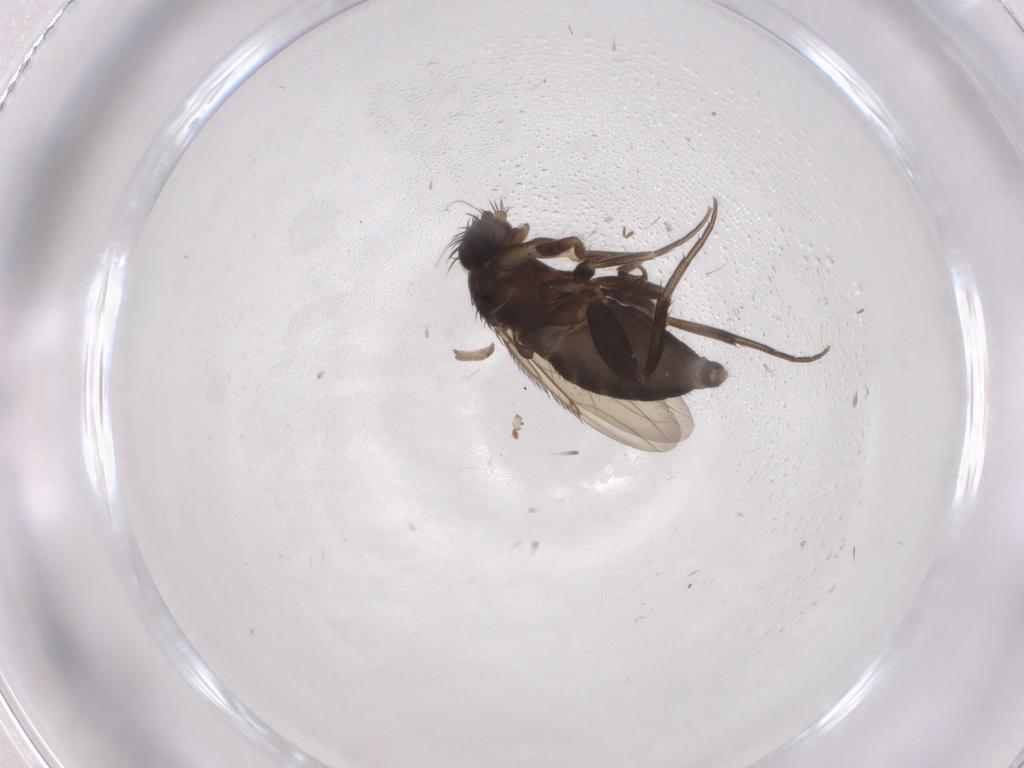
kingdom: Animalia
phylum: Arthropoda
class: Insecta
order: Diptera
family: Phoridae
